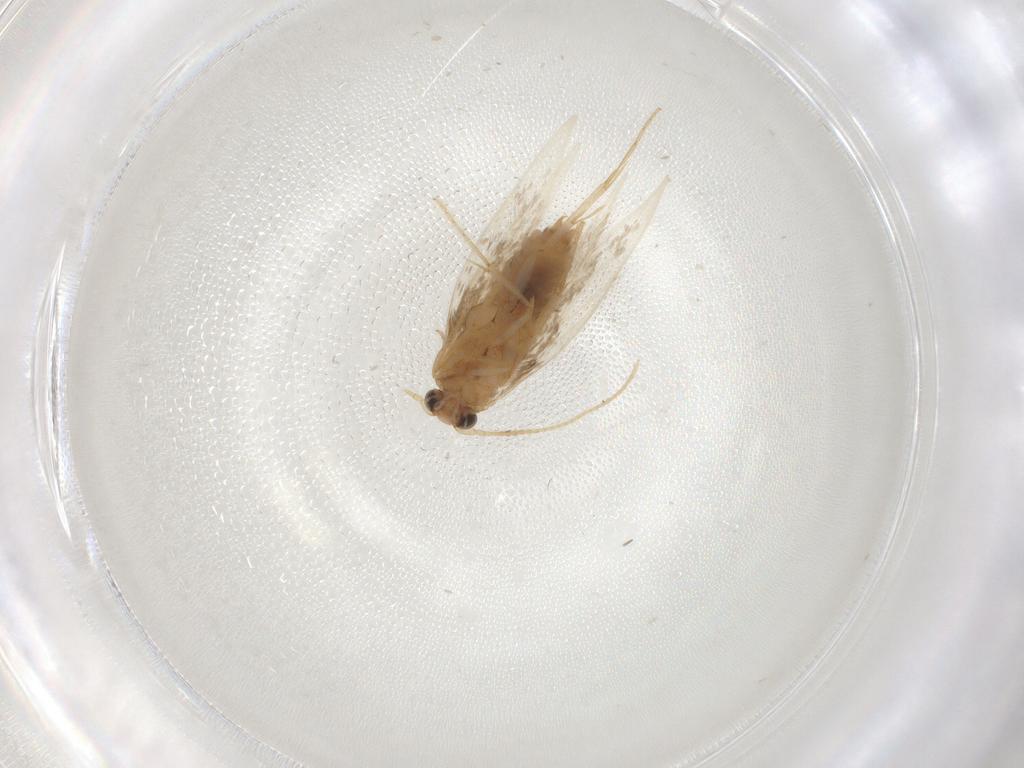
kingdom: Animalia
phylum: Arthropoda
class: Insecta
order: Lepidoptera
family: Nepticulidae
